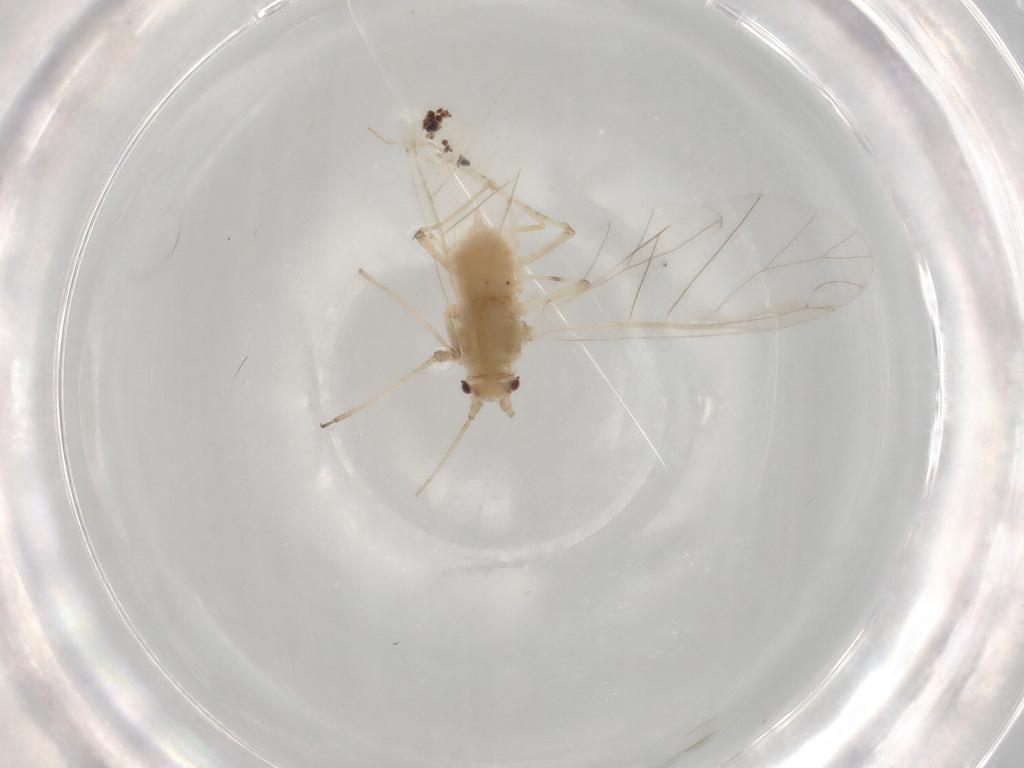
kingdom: Animalia
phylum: Arthropoda
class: Insecta
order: Hemiptera
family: Aphididae
